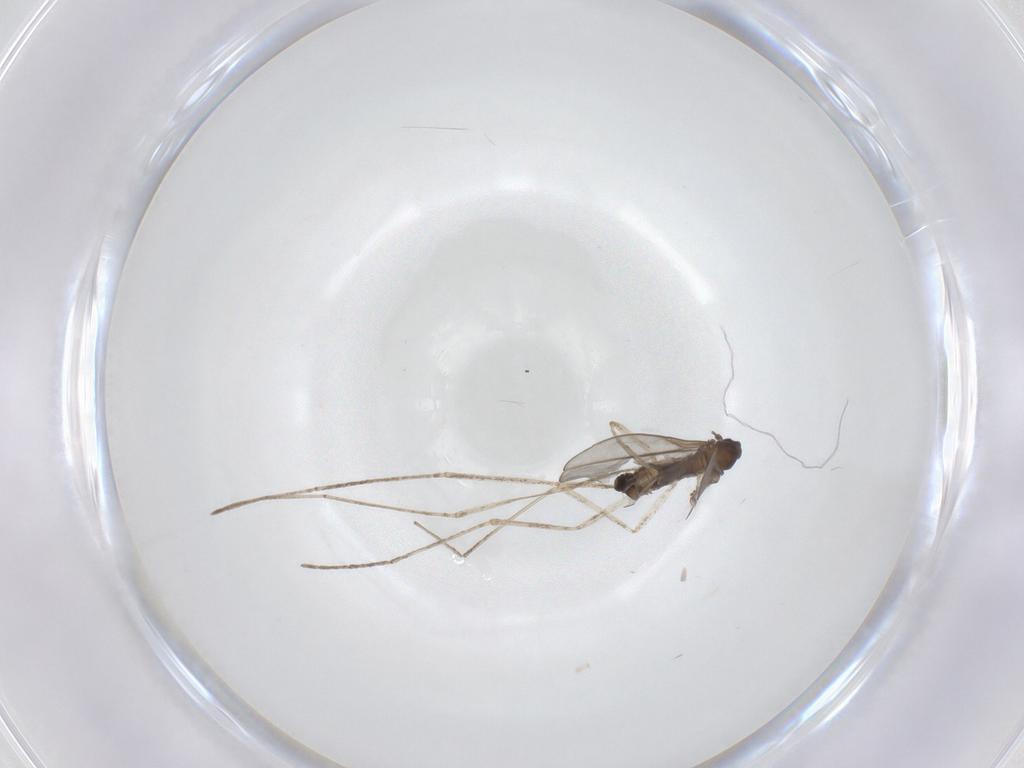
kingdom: Animalia
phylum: Arthropoda
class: Insecta
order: Diptera
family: Cecidomyiidae
